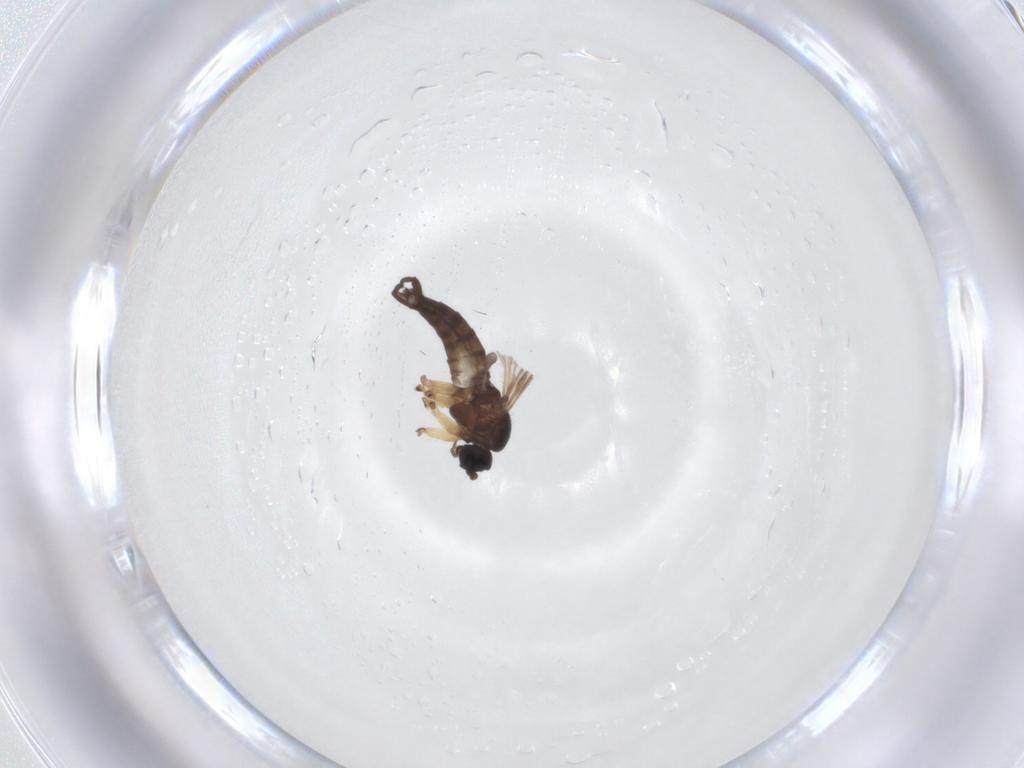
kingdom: Animalia
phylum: Arthropoda
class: Insecta
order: Diptera
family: Sciaridae
